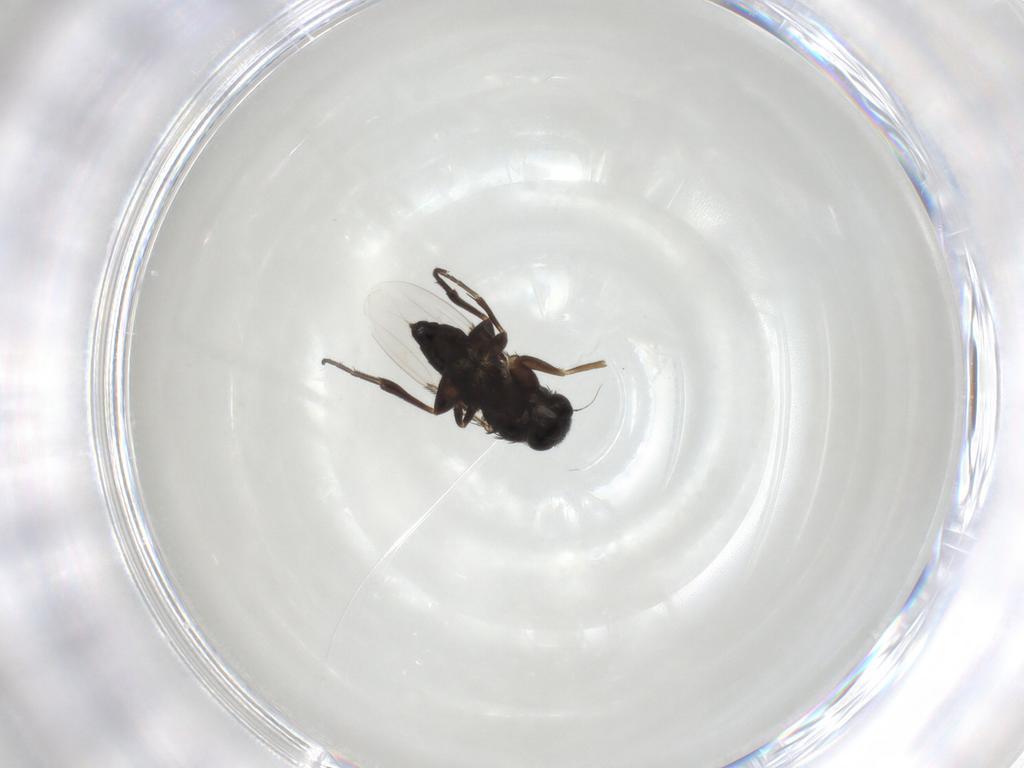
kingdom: Animalia
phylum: Arthropoda
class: Insecta
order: Diptera
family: Phoridae
